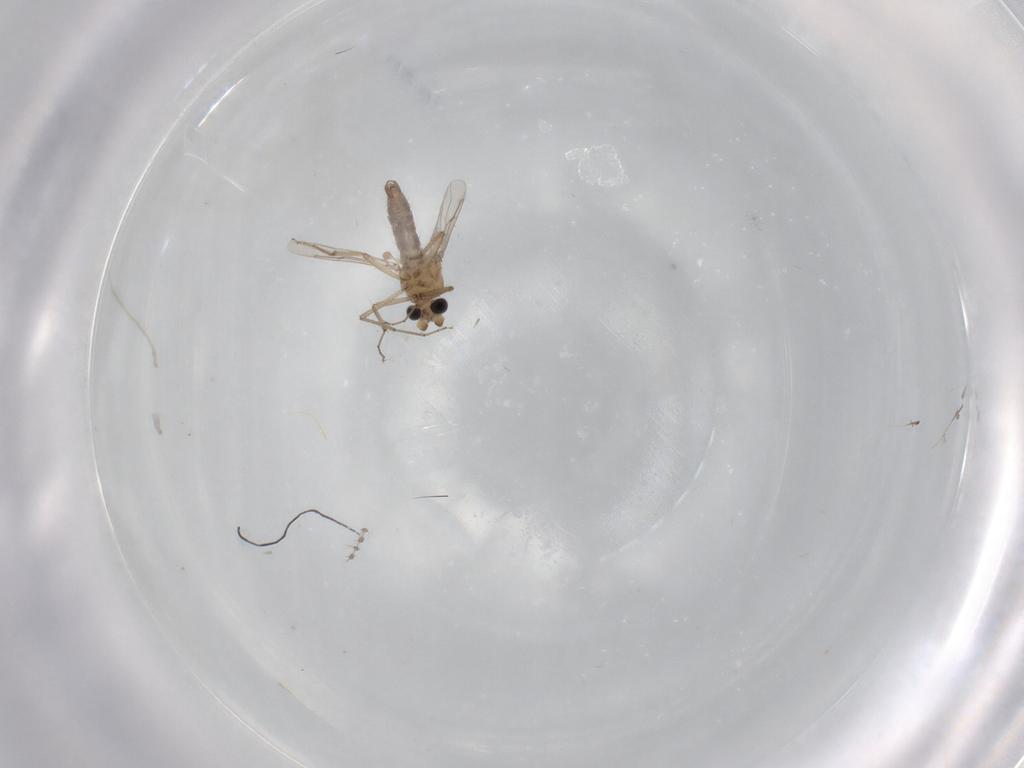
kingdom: Animalia
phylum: Arthropoda
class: Insecta
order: Diptera
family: Ceratopogonidae
